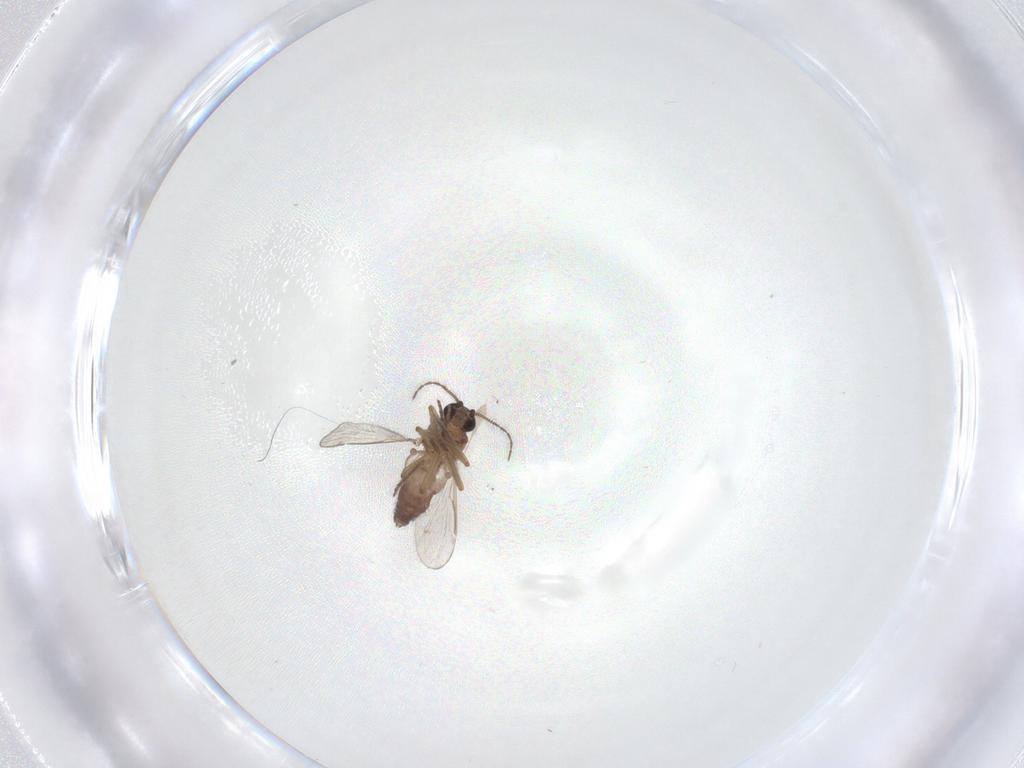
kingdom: Animalia
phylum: Arthropoda
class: Insecta
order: Diptera
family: Ceratopogonidae
